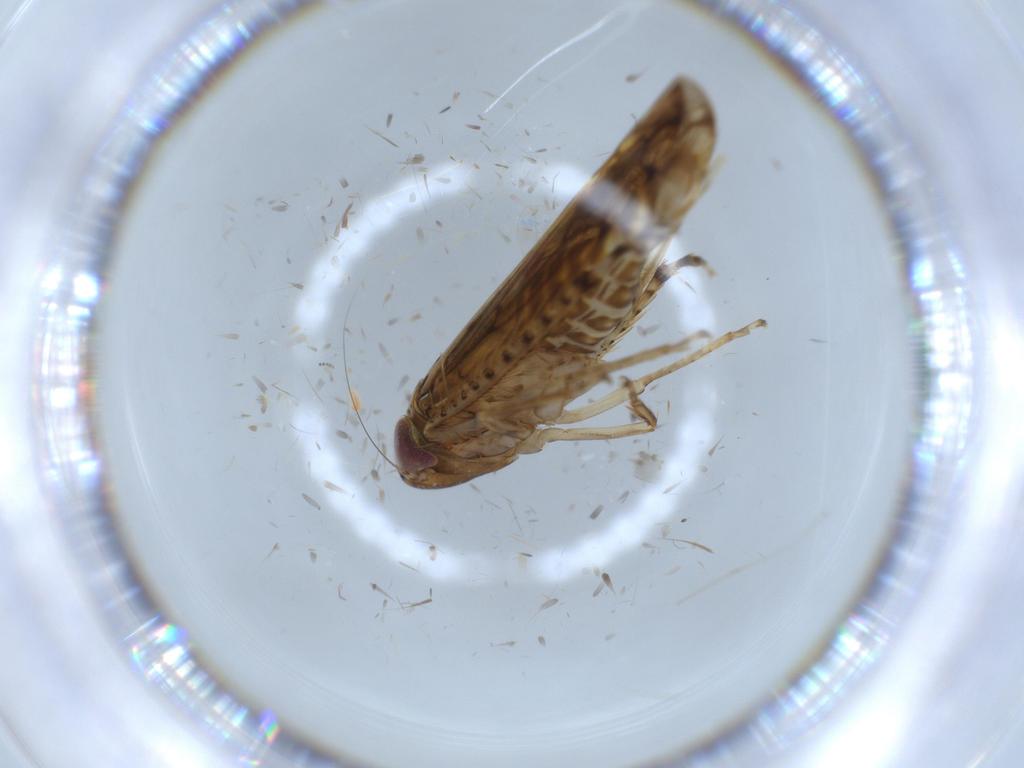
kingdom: Animalia
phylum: Arthropoda
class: Insecta
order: Hemiptera
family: Cicadellidae
